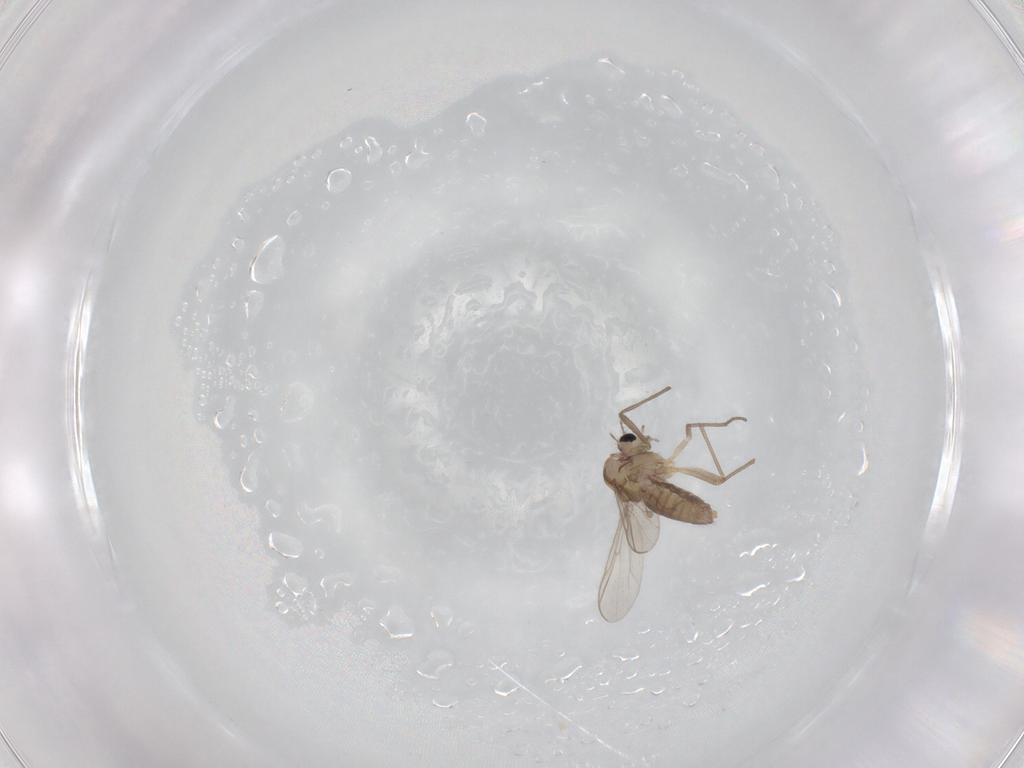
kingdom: Animalia
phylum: Arthropoda
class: Insecta
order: Diptera
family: Chironomidae
